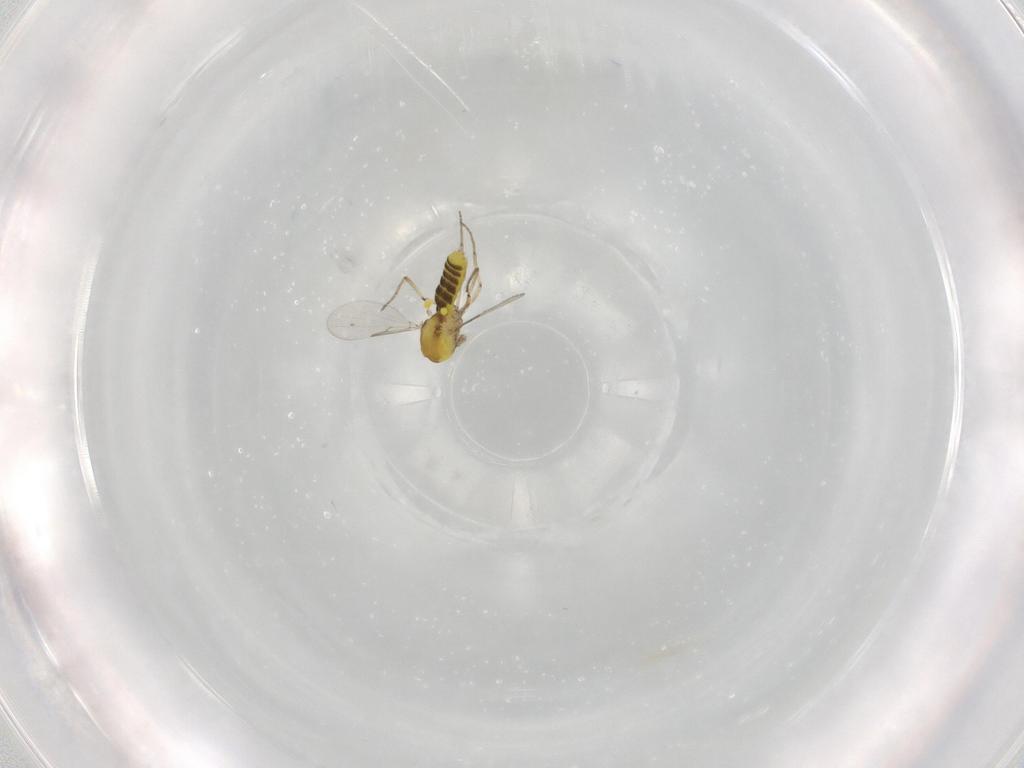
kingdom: Animalia
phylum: Arthropoda
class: Insecta
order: Diptera
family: Ceratopogonidae
